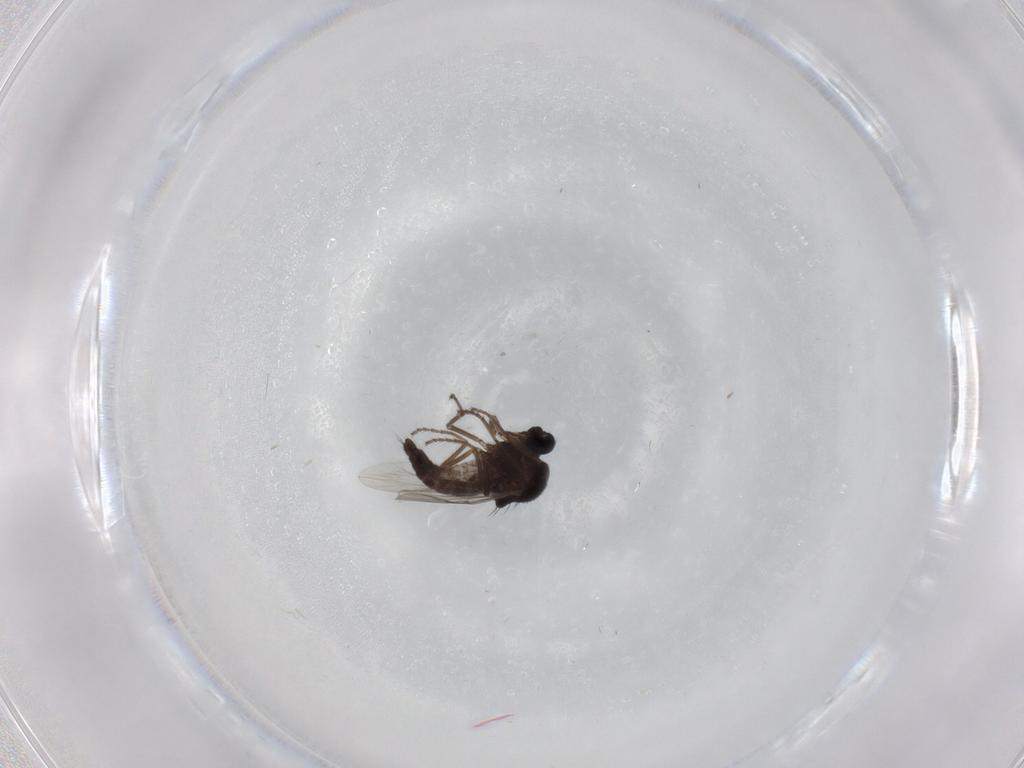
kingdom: Animalia
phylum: Arthropoda
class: Insecta
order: Diptera
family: Ceratopogonidae
